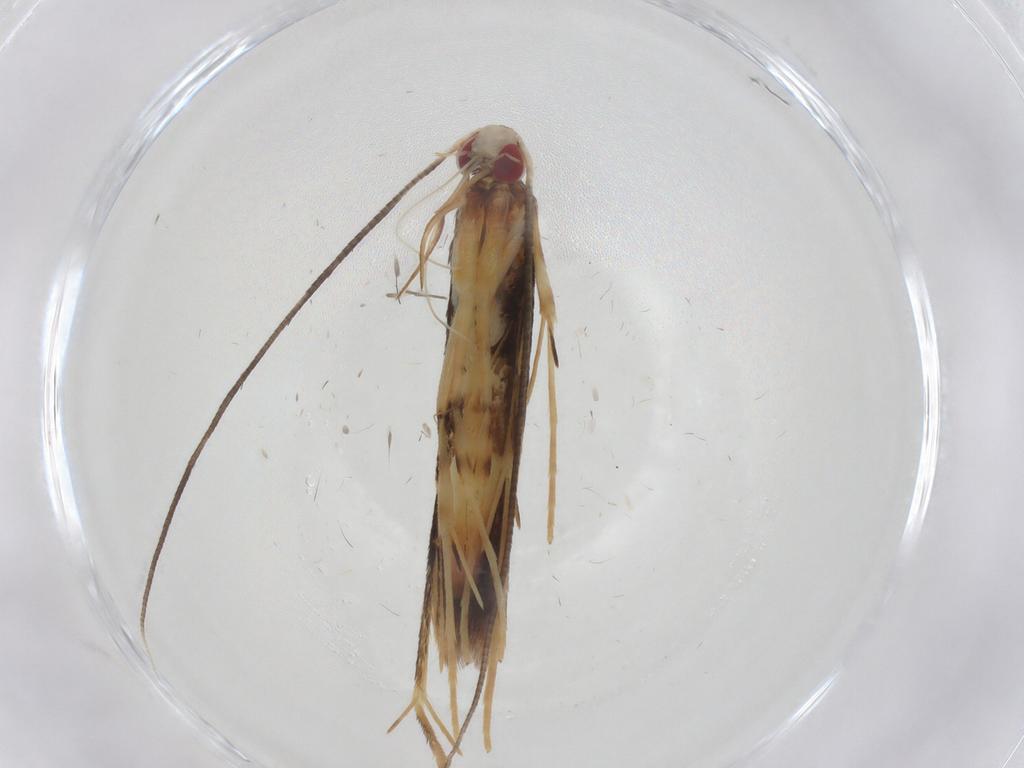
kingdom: Animalia
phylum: Arthropoda
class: Insecta
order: Lepidoptera
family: Gracillariidae
